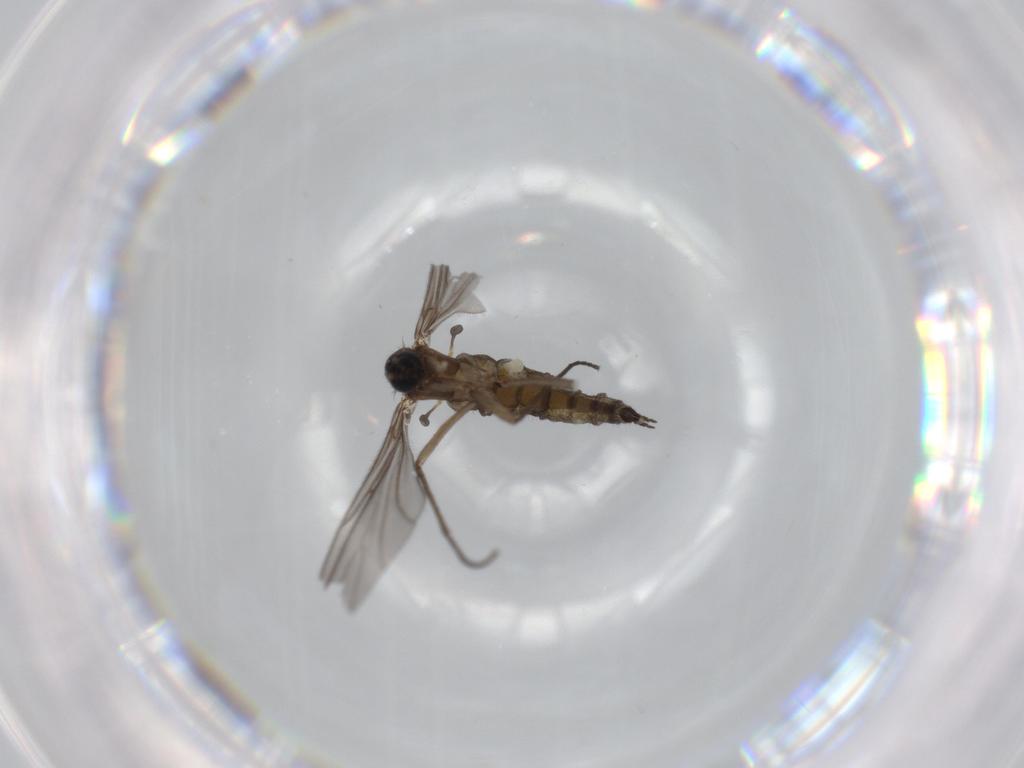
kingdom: Animalia
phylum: Arthropoda
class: Insecta
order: Diptera
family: Sciaridae
